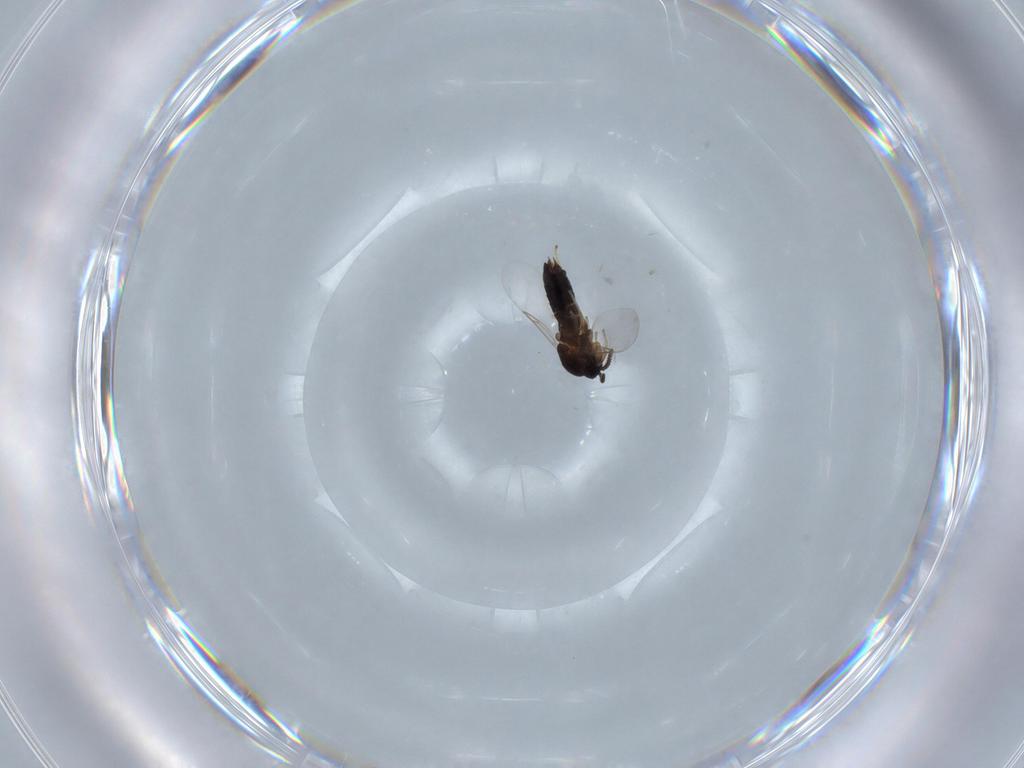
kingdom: Animalia
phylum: Arthropoda
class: Insecta
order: Diptera
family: Scatopsidae
